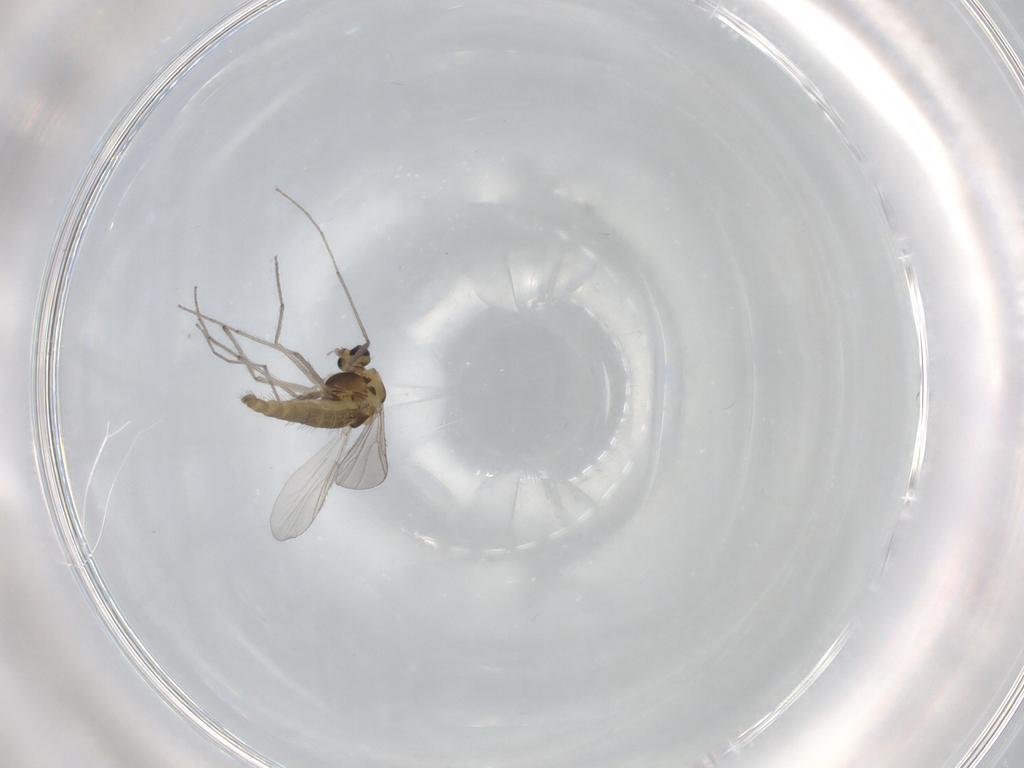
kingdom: Animalia
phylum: Arthropoda
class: Insecta
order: Diptera
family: Chironomidae
